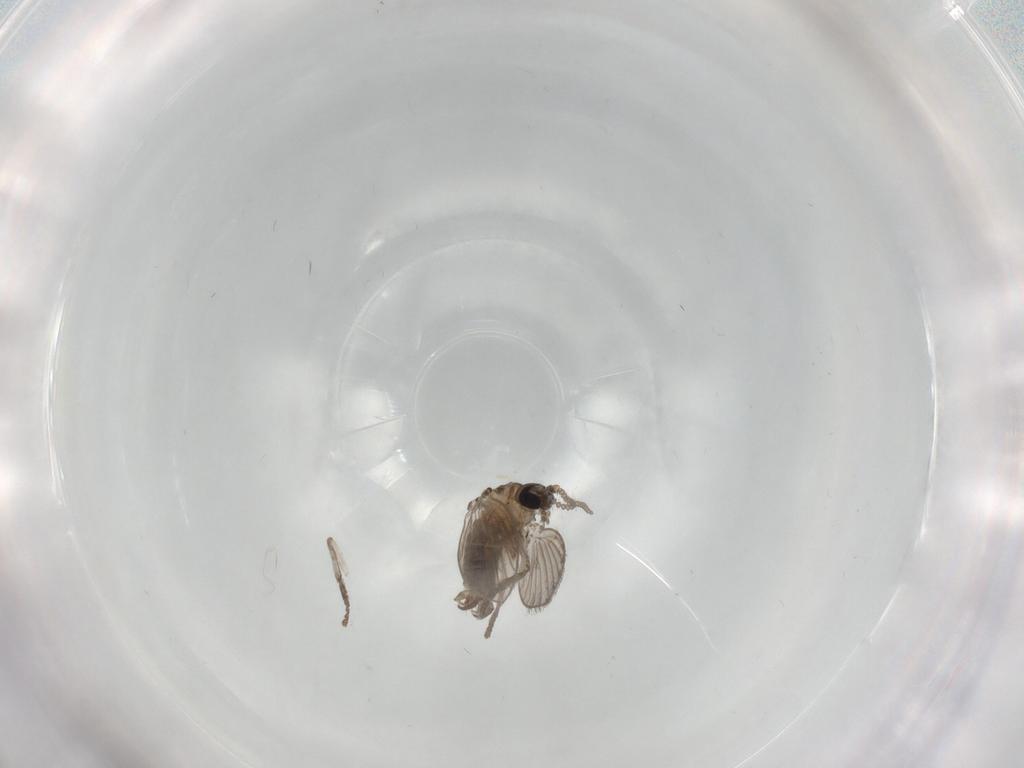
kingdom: Animalia
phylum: Arthropoda
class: Insecta
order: Diptera
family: Psychodidae
